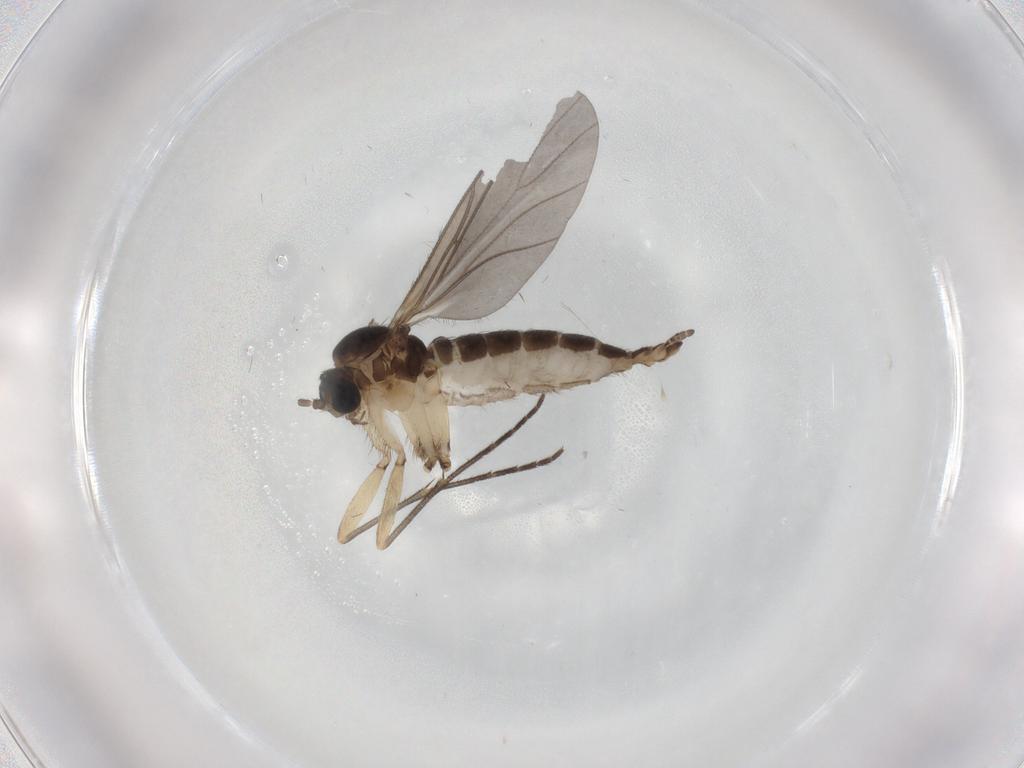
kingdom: Animalia
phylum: Arthropoda
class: Insecta
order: Diptera
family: Sciaridae
